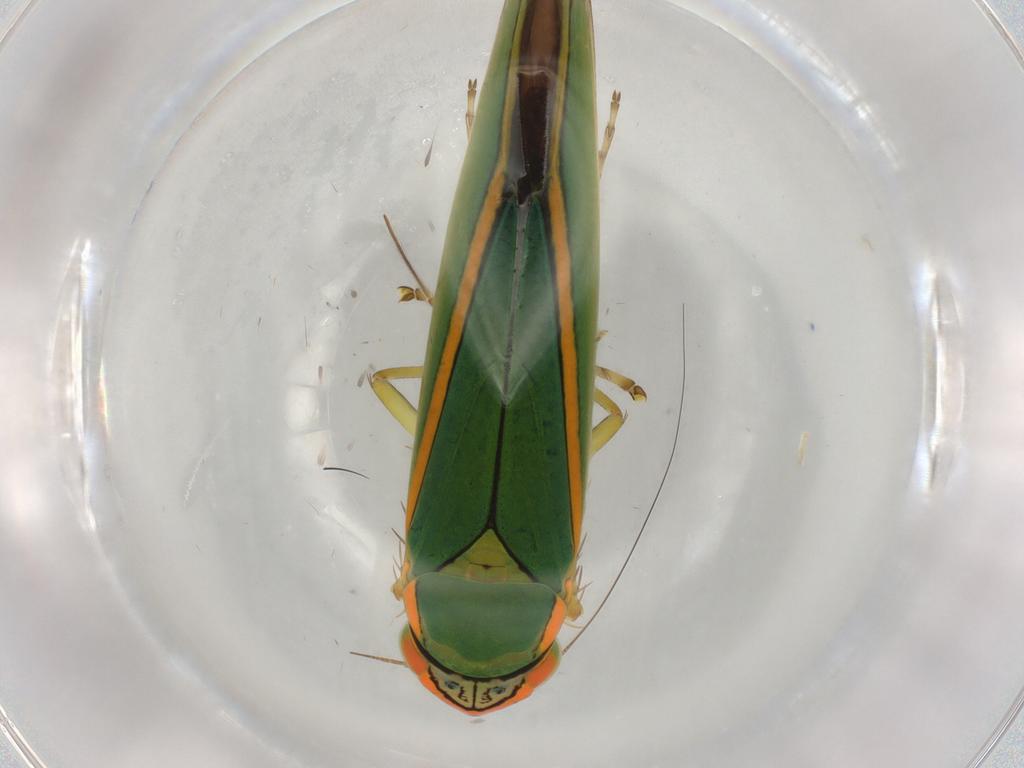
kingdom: Animalia
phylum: Arthropoda
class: Insecta
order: Hemiptera
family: Cicadellidae
